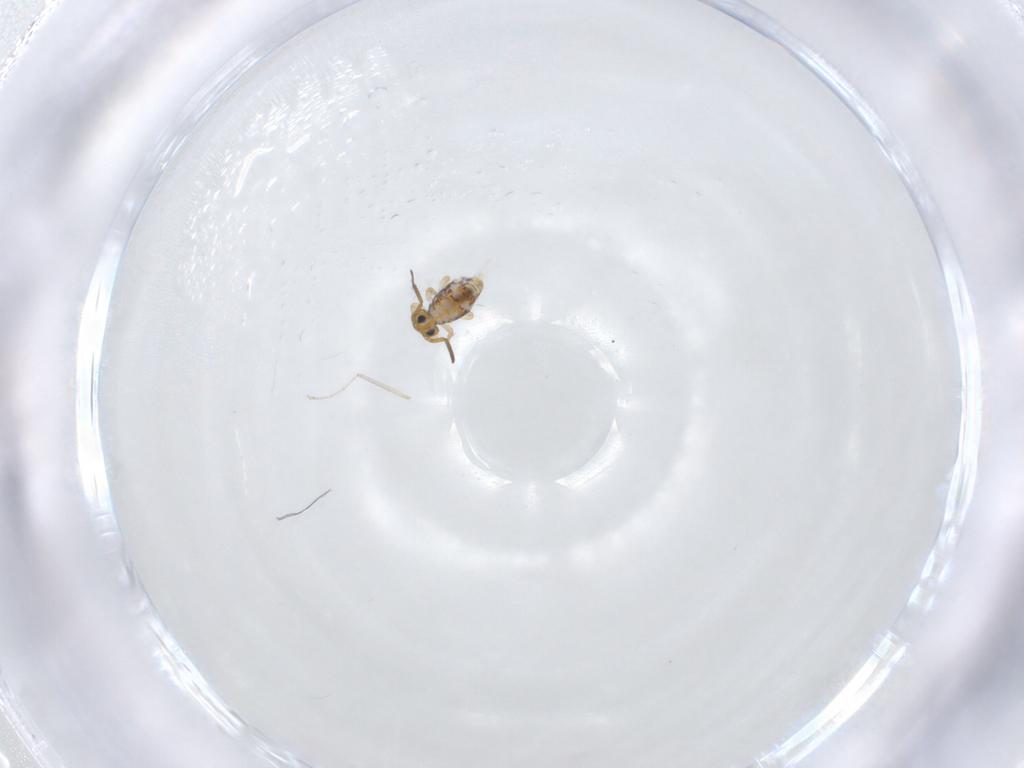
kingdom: Animalia
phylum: Arthropoda
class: Collembola
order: Symphypleona
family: Katiannidae
